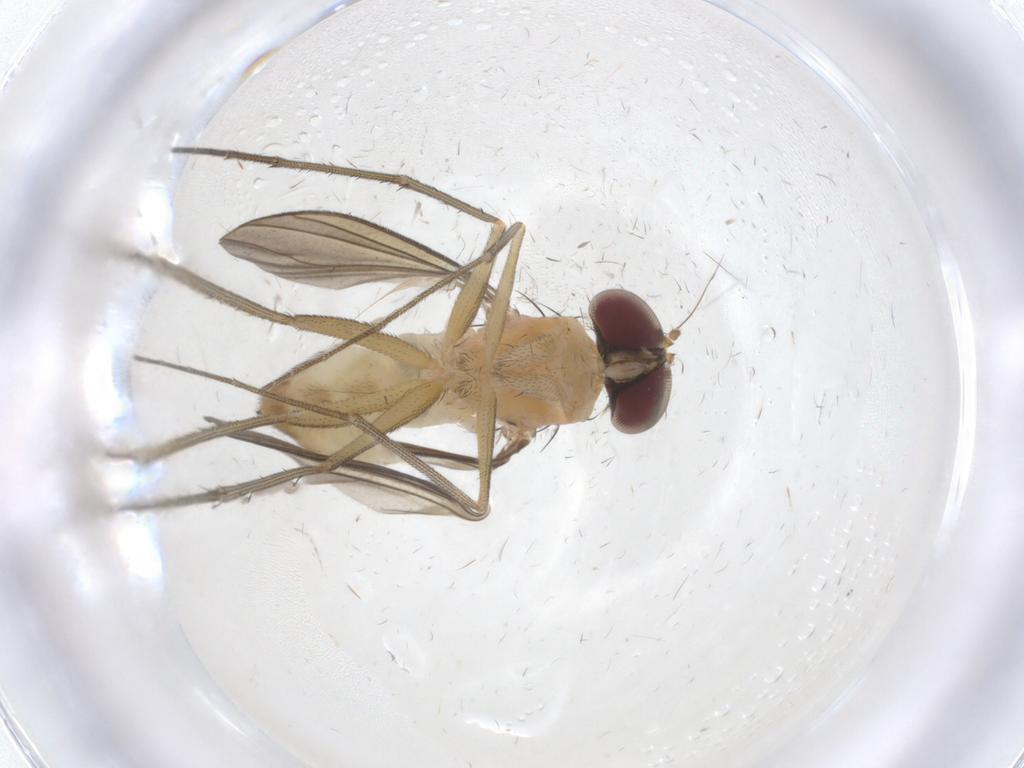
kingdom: Animalia
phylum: Arthropoda
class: Insecta
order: Diptera
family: Dolichopodidae
